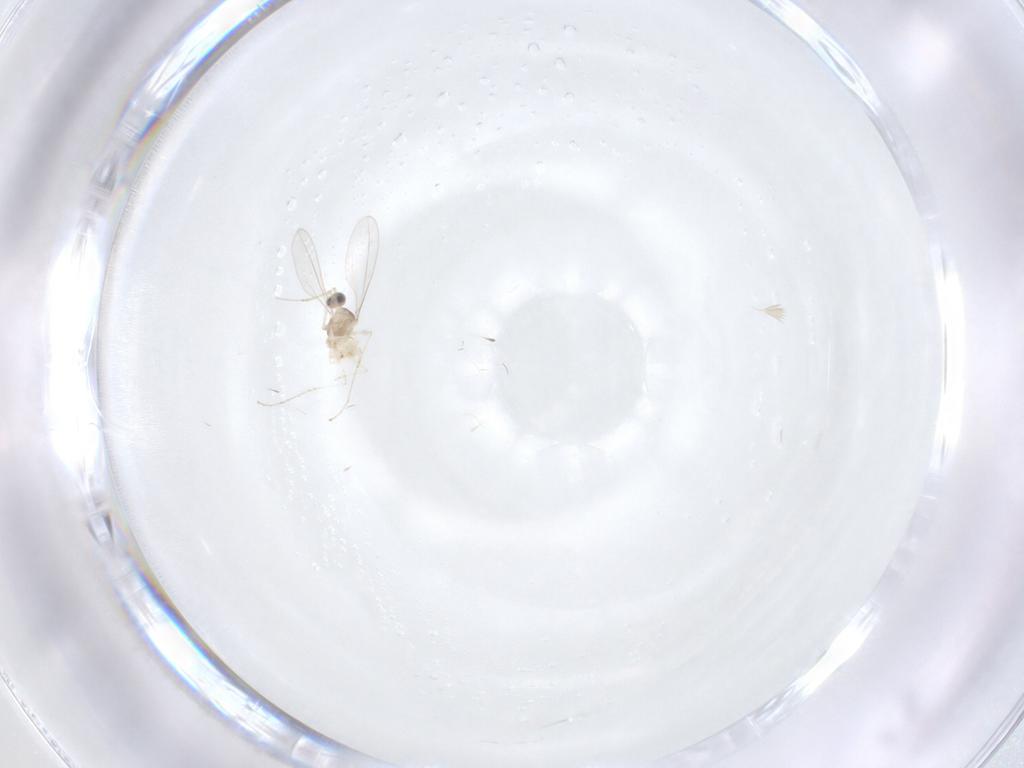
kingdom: Animalia
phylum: Arthropoda
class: Insecta
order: Diptera
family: Cecidomyiidae
